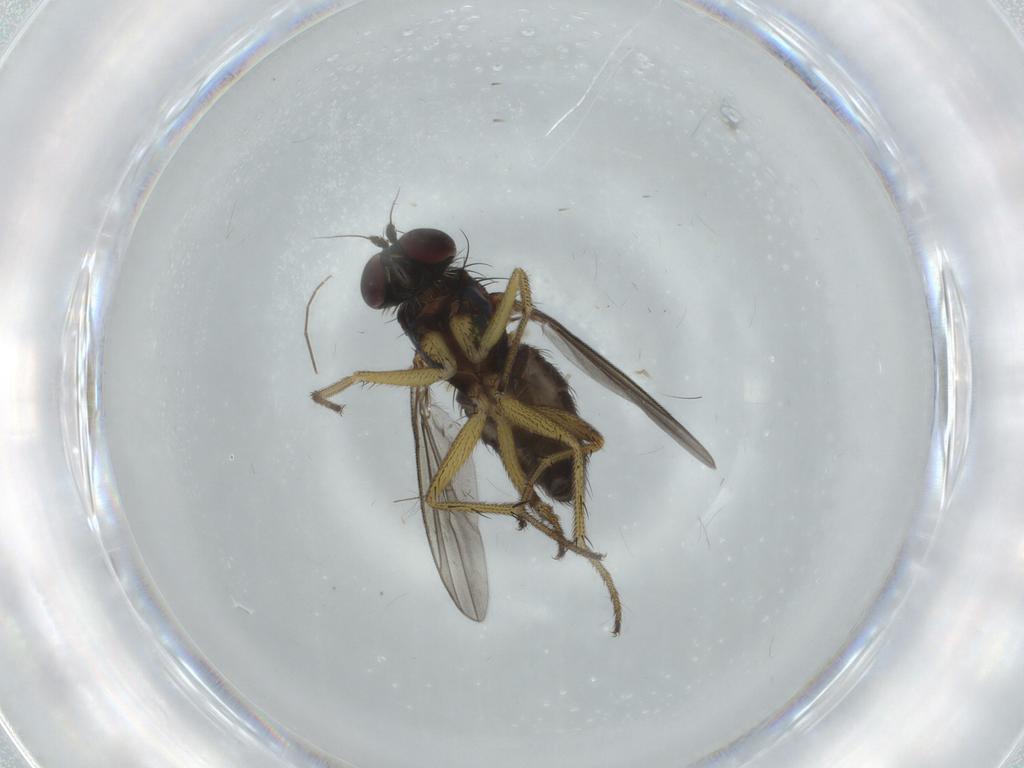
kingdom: Animalia
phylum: Arthropoda
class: Insecta
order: Diptera
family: Dolichopodidae
